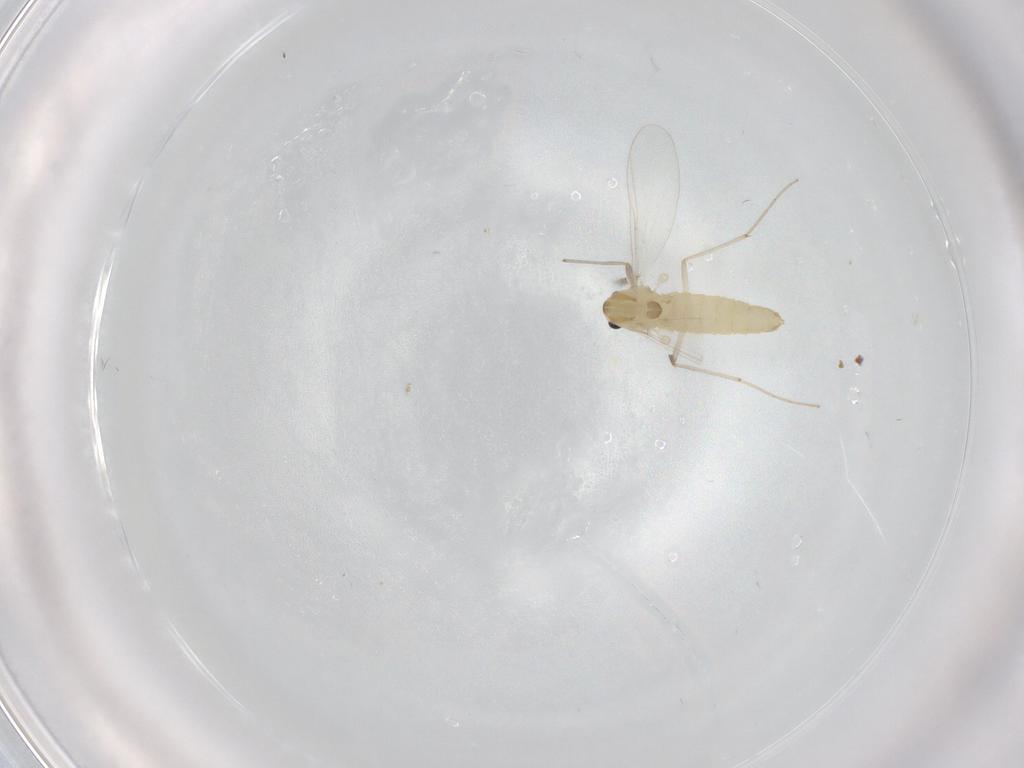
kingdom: Animalia
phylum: Arthropoda
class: Insecta
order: Diptera
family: Chironomidae
